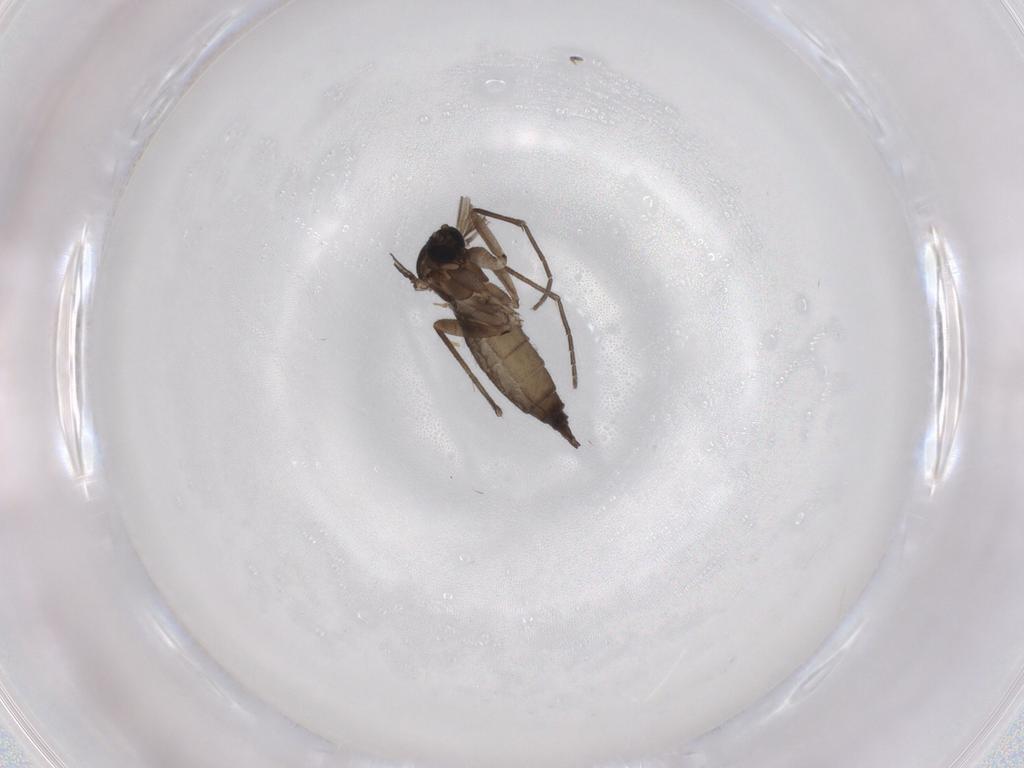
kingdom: Animalia
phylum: Arthropoda
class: Insecta
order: Diptera
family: Sciaridae
